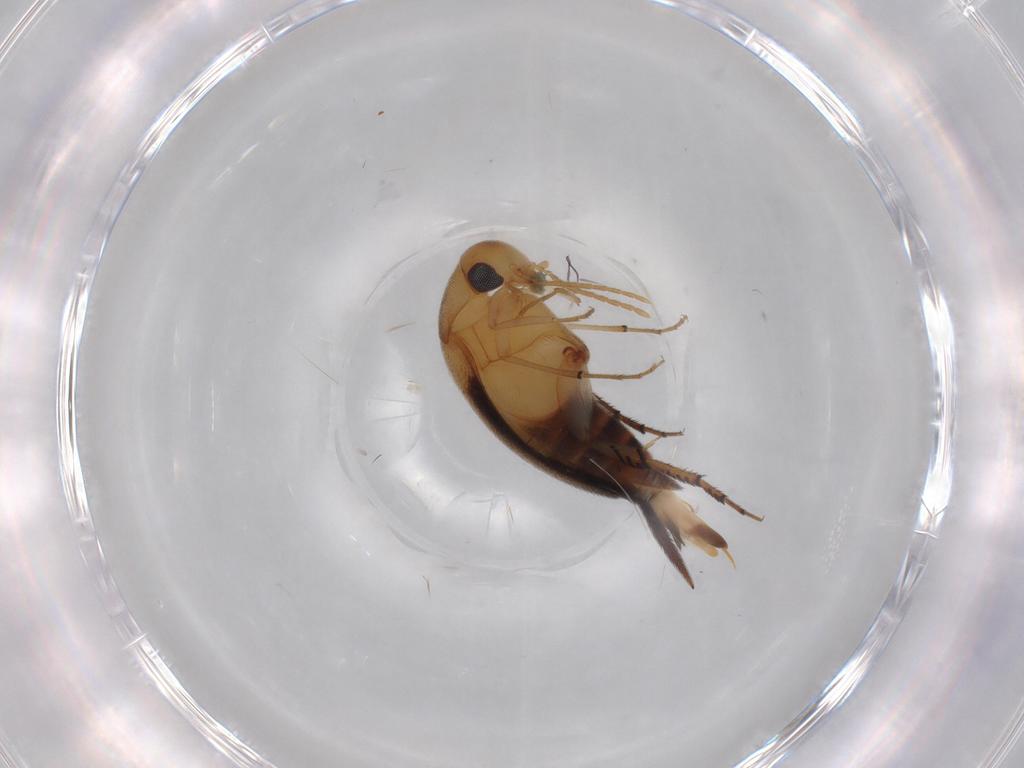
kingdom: Animalia
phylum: Arthropoda
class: Insecta
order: Coleoptera
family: Mordellidae
